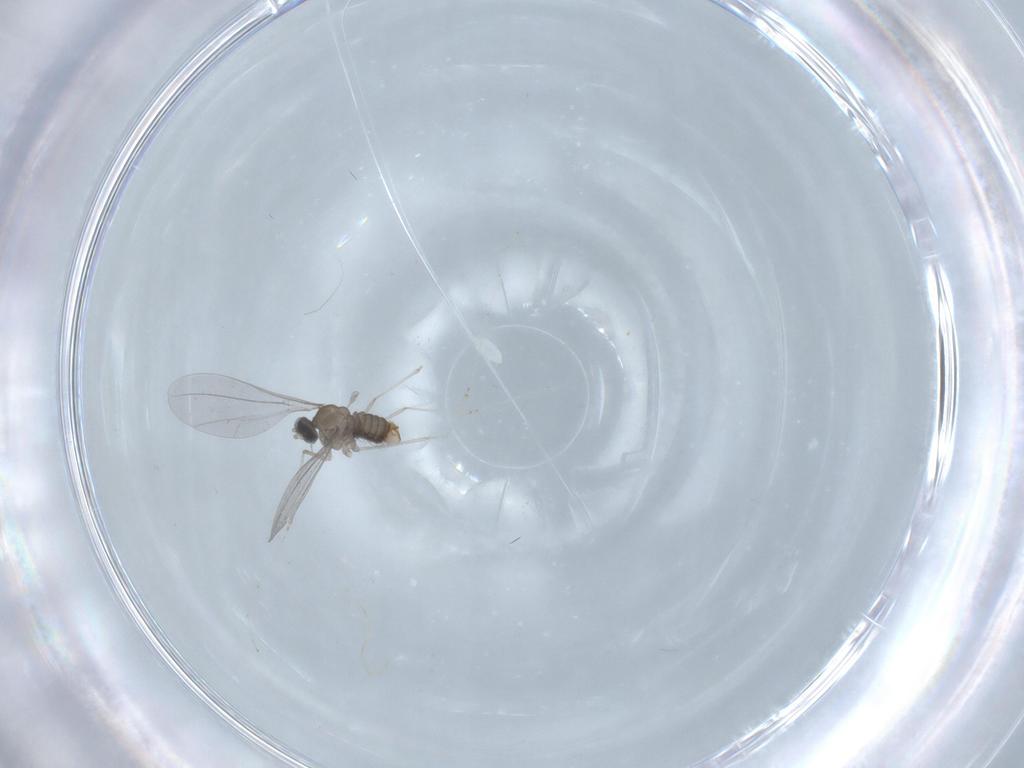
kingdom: Animalia
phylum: Arthropoda
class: Insecta
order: Diptera
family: Cecidomyiidae
